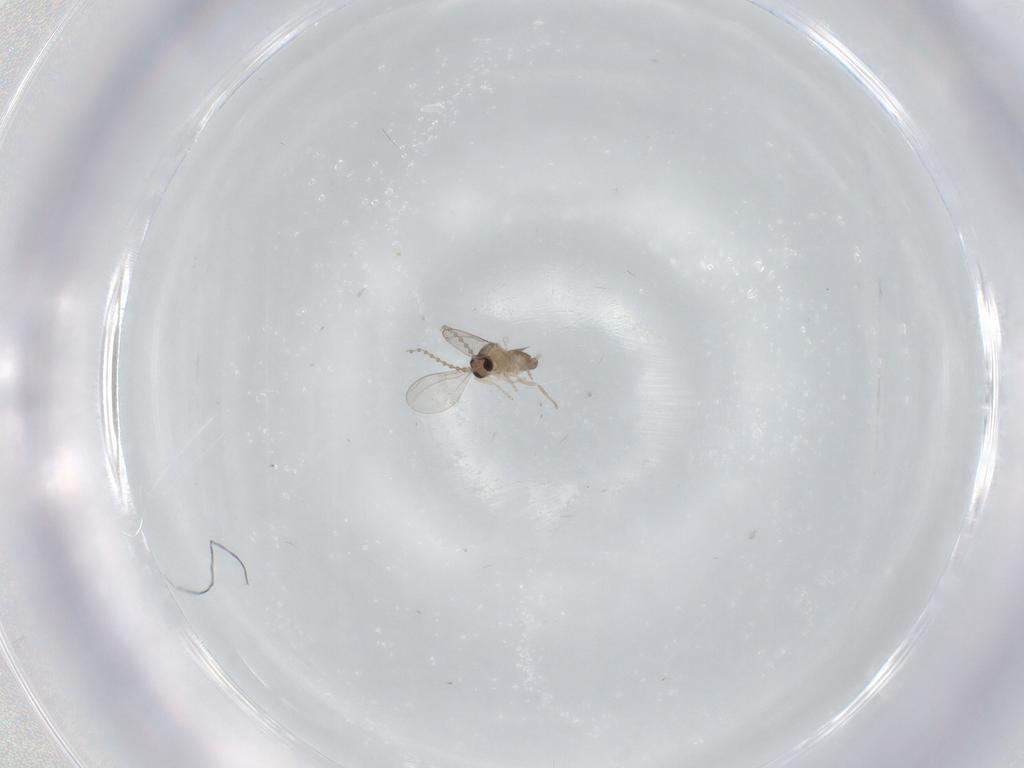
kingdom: Animalia
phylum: Arthropoda
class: Insecta
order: Diptera
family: Cecidomyiidae
